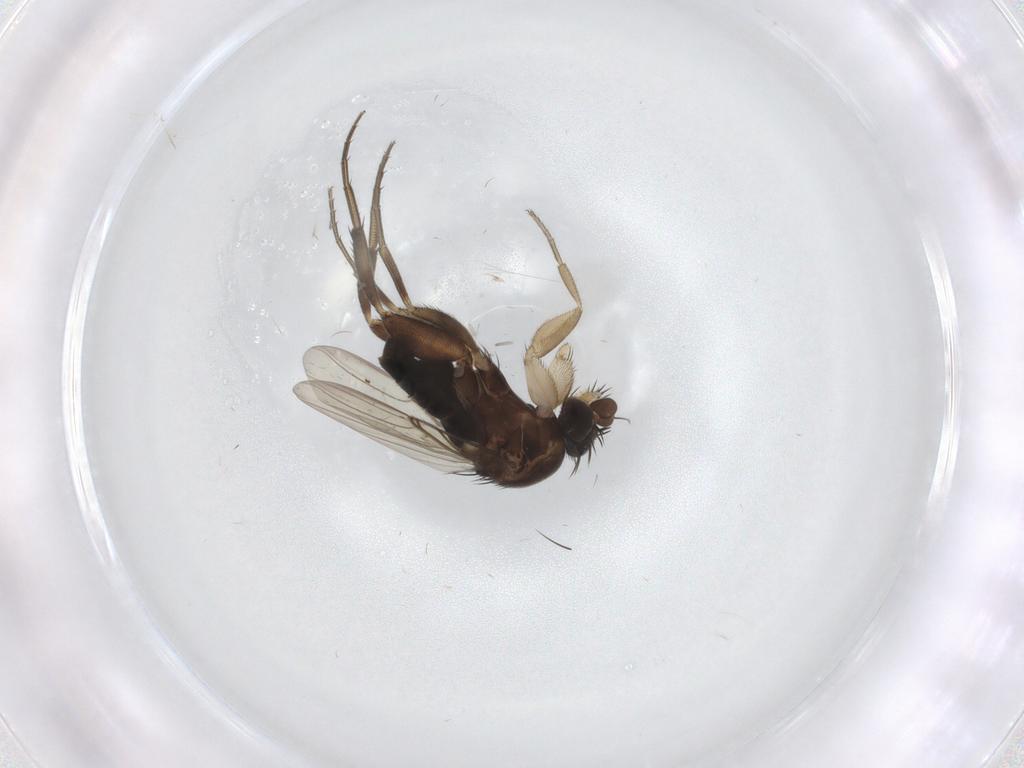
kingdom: Animalia
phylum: Arthropoda
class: Insecta
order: Diptera
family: Phoridae
